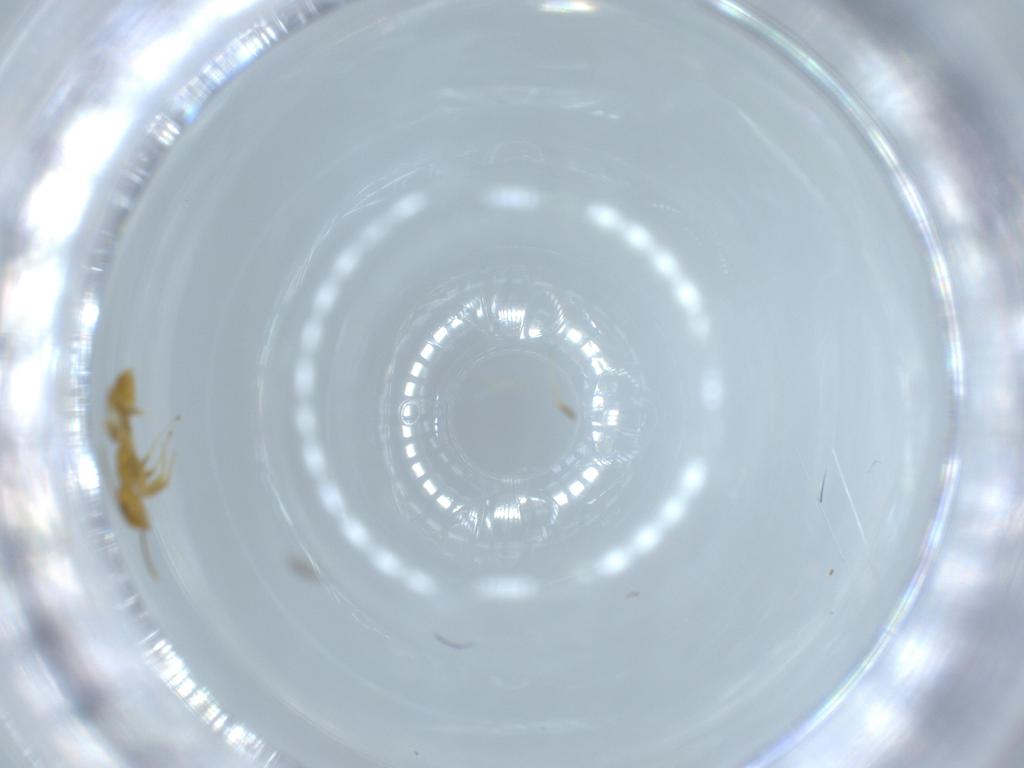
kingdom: Animalia
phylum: Arthropoda
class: Insecta
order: Hymenoptera
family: Formicidae
